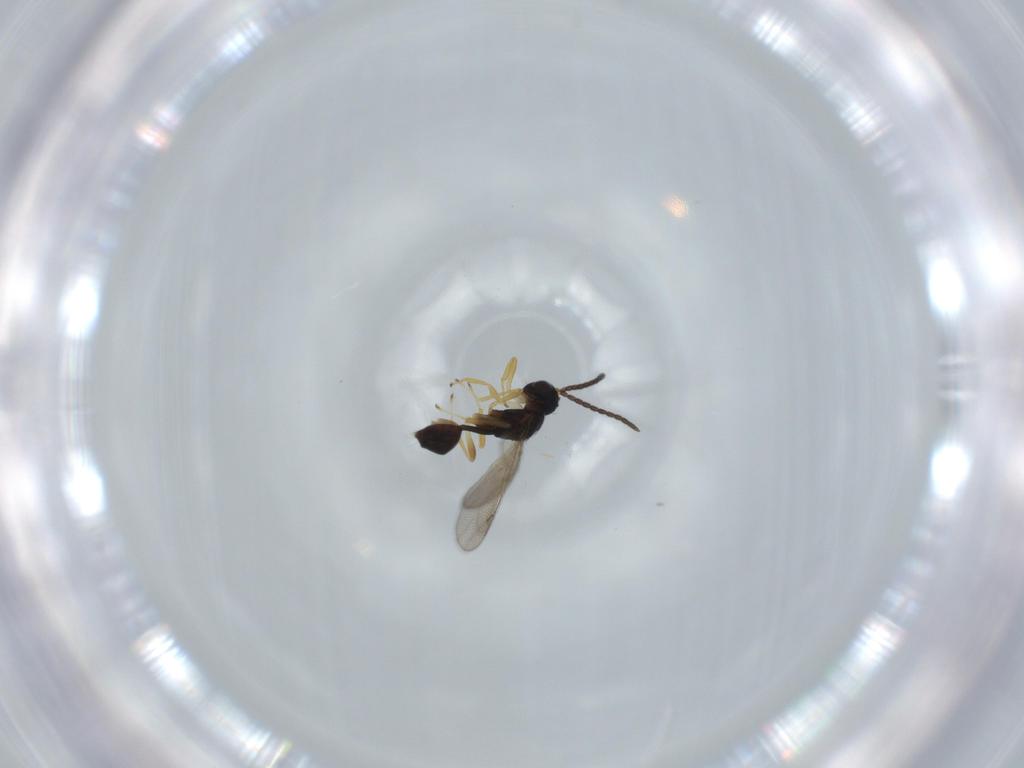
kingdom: Animalia
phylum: Arthropoda
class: Insecta
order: Hymenoptera
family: Diparidae
